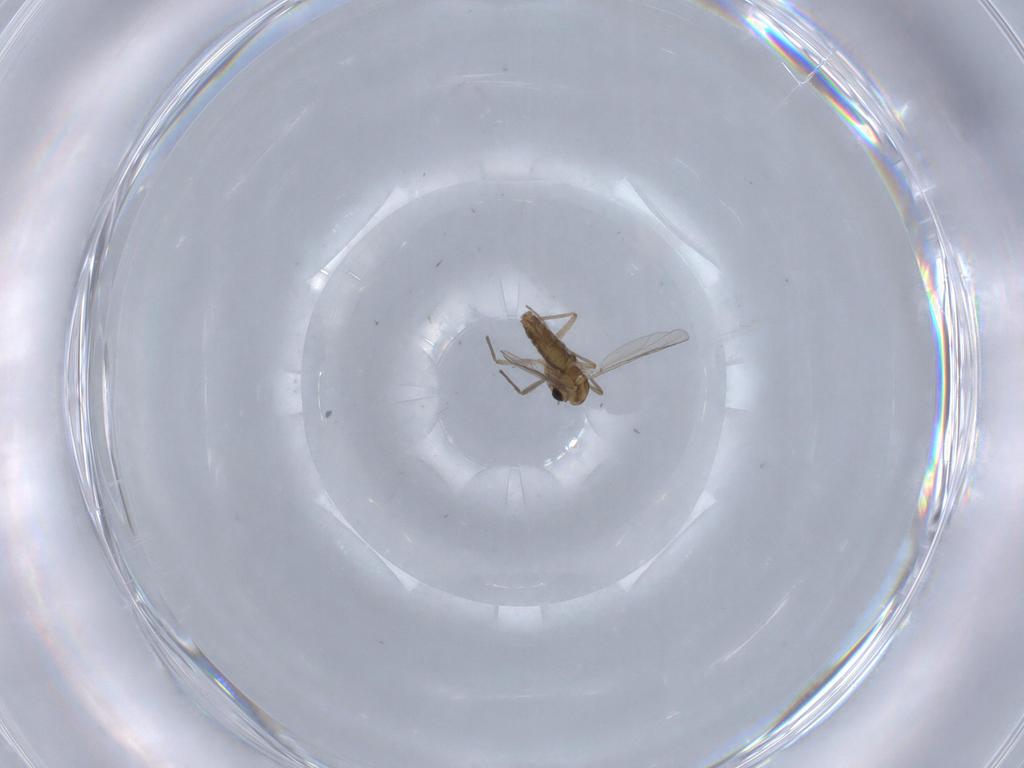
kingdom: Animalia
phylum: Arthropoda
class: Insecta
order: Diptera
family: Chironomidae
